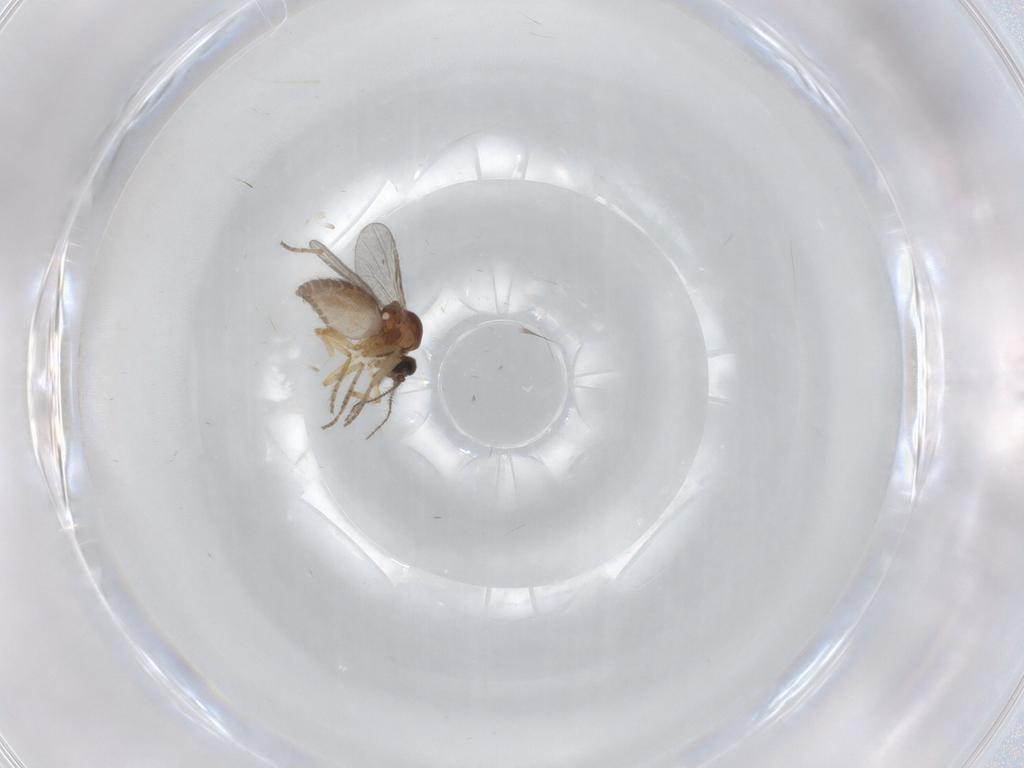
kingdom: Animalia
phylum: Arthropoda
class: Insecta
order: Diptera
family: Ceratopogonidae
